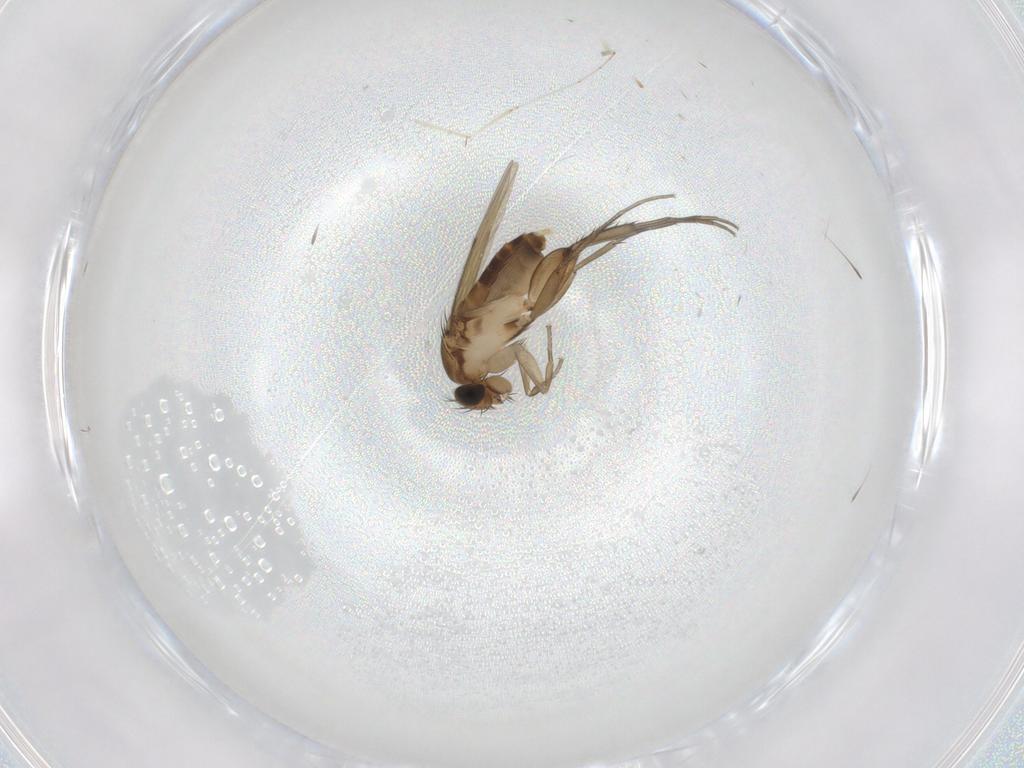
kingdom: Animalia
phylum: Arthropoda
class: Insecta
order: Diptera
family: Phoridae
